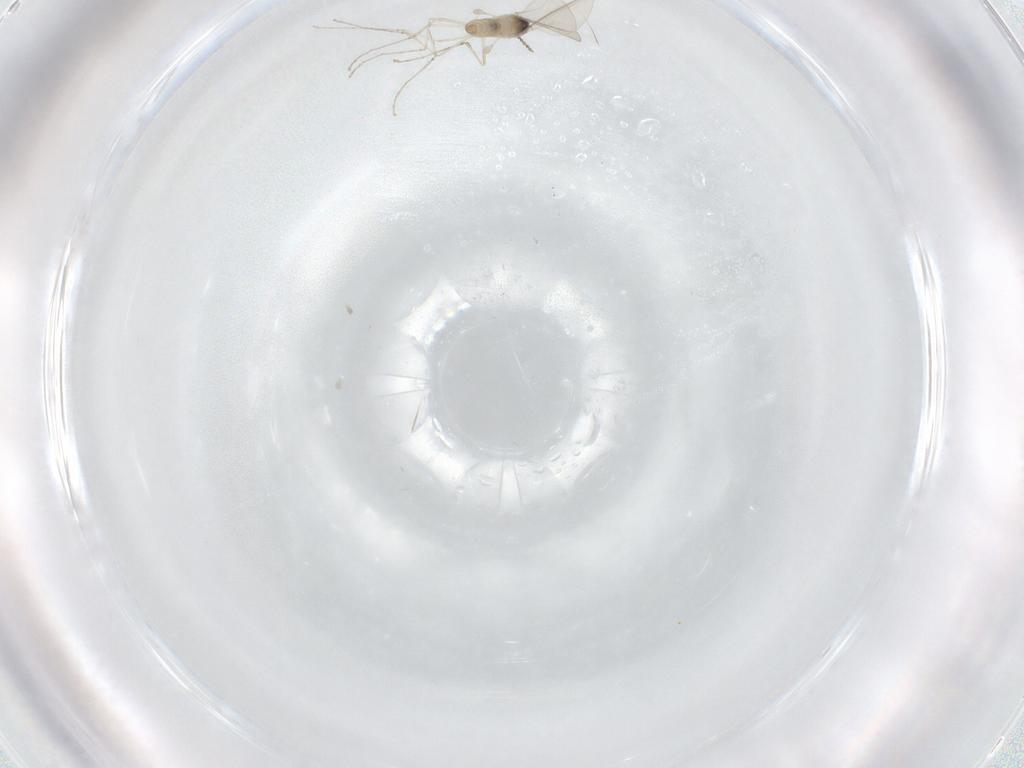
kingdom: Animalia
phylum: Arthropoda
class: Insecta
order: Diptera
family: Cecidomyiidae
